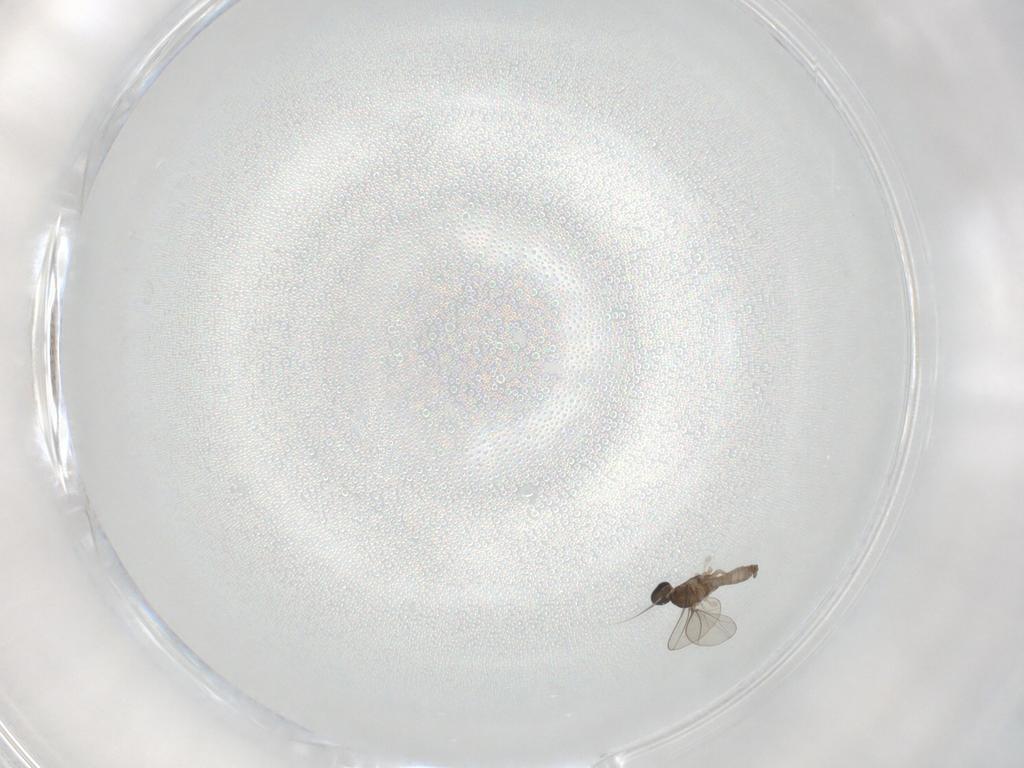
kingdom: Animalia
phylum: Arthropoda
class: Insecta
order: Diptera
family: Cecidomyiidae
